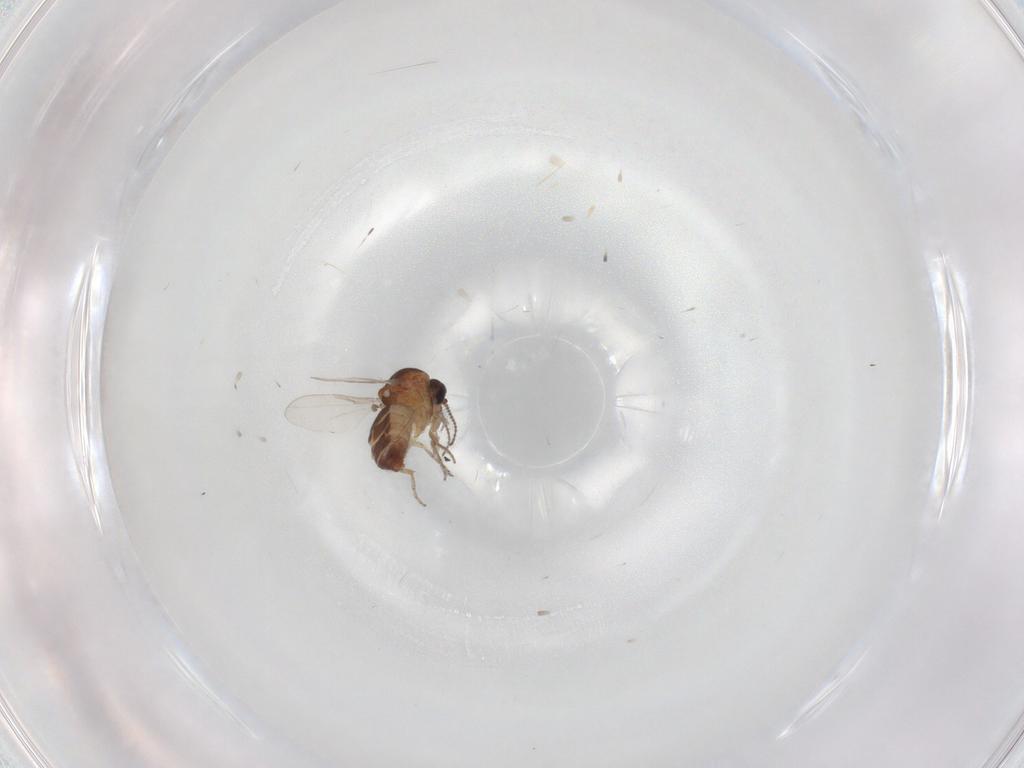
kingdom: Animalia
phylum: Arthropoda
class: Insecta
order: Diptera
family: Ceratopogonidae
